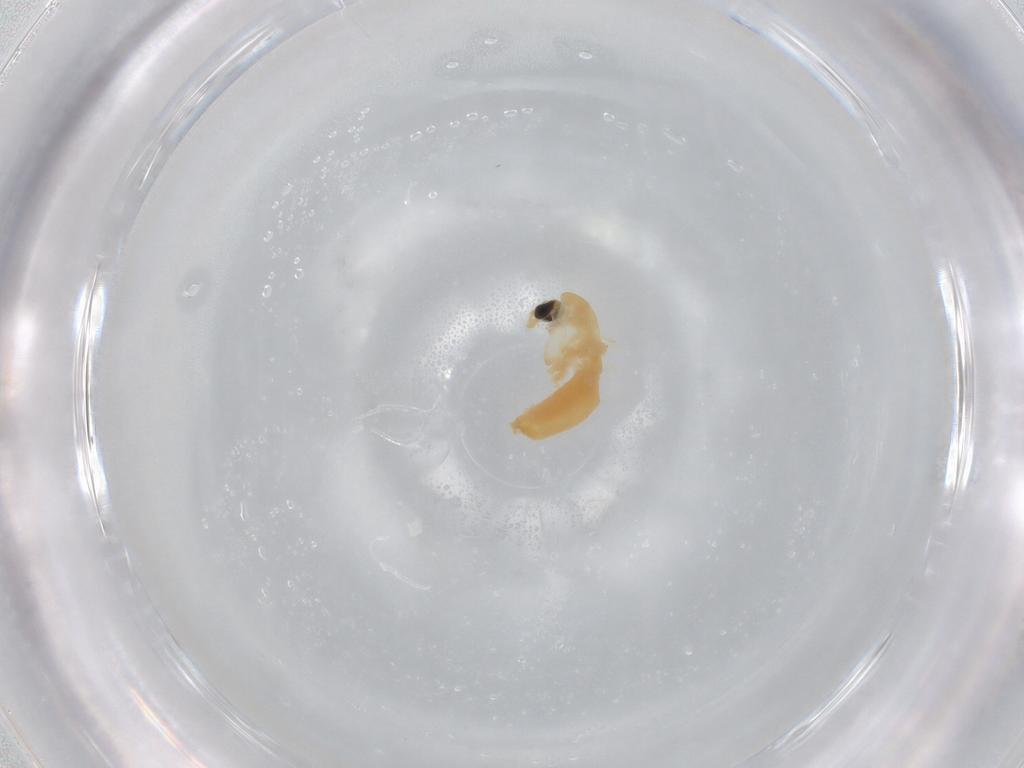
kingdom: Animalia
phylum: Arthropoda
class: Insecta
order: Diptera
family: Chironomidae
